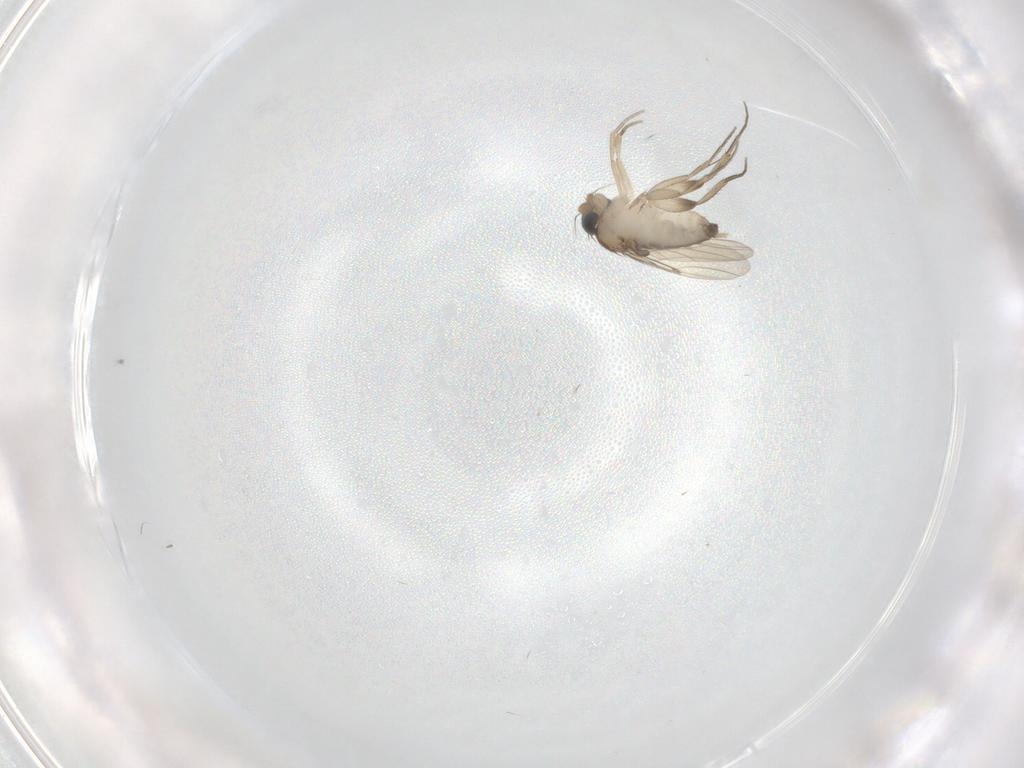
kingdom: Animalia
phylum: Arthropoda
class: Insecta
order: Diptera
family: Phoridae
